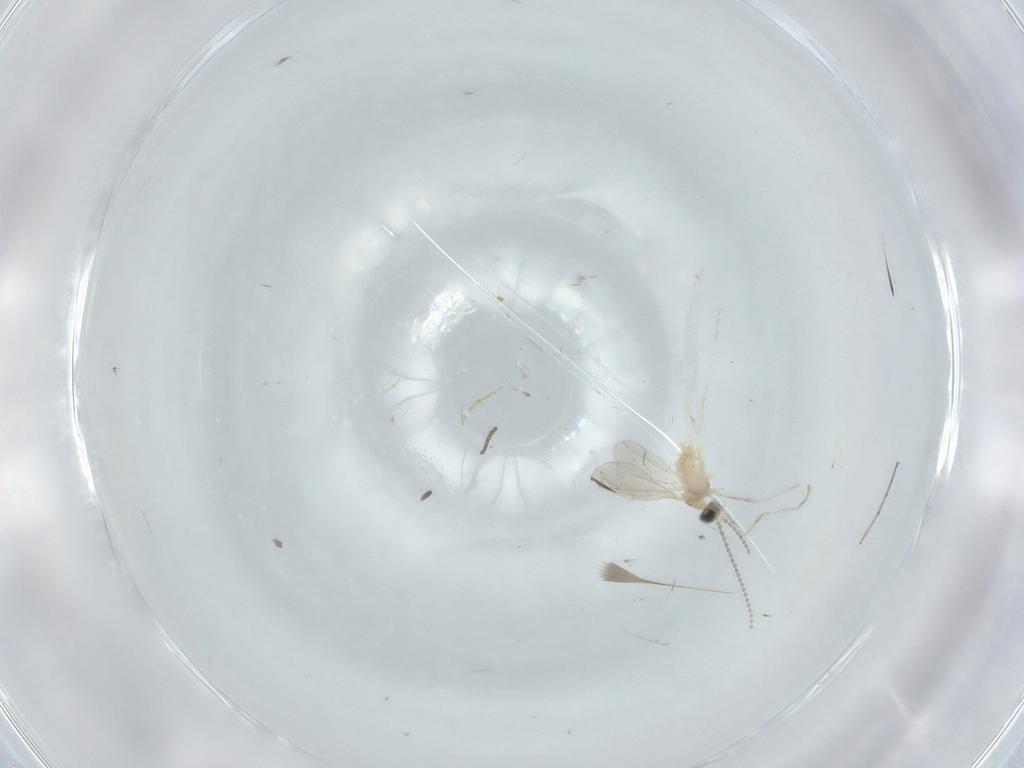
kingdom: Animalia
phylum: Arthropoda
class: Insecta
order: Diptera
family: Cecidomyiidae
